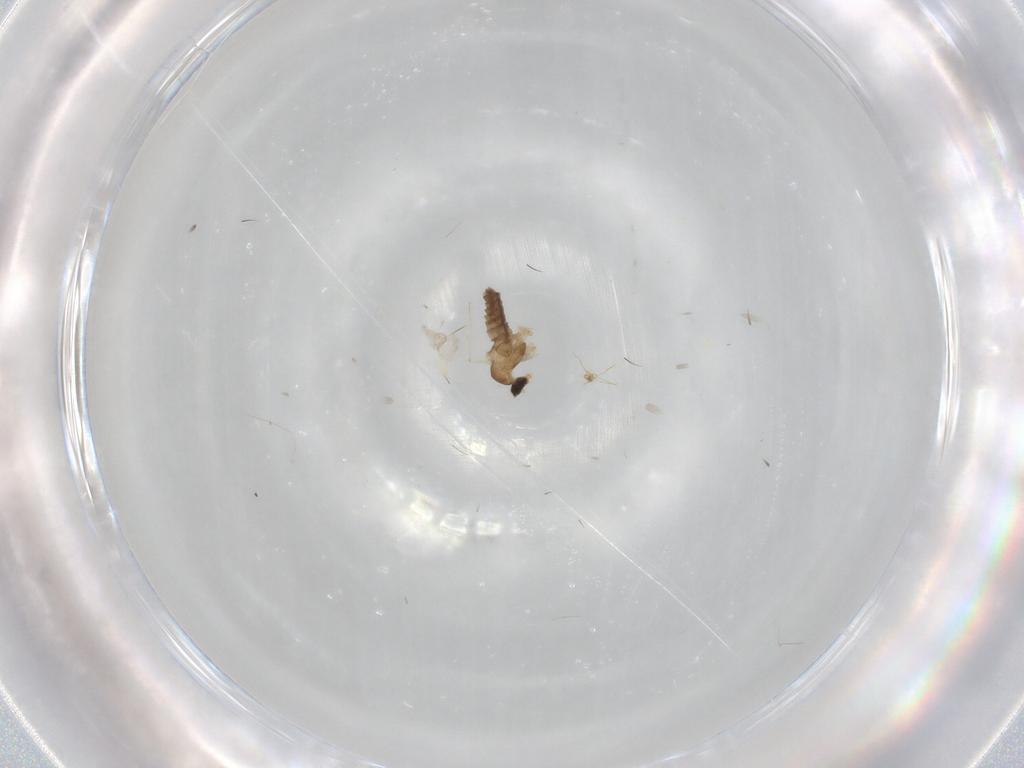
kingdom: Animalia
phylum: Arthropoda
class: Insecta
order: Diptera
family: Cecidomyiidae
